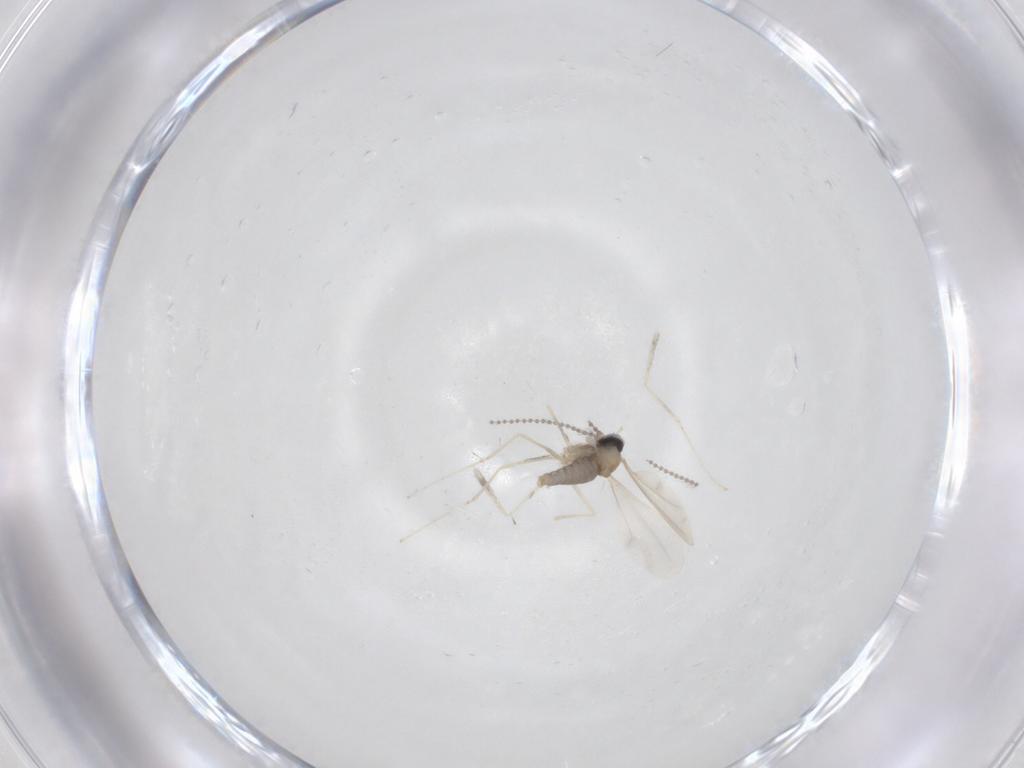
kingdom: Animalia
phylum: Arthropoda
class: Insecta
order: Diptera
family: Cecidomyiidae
